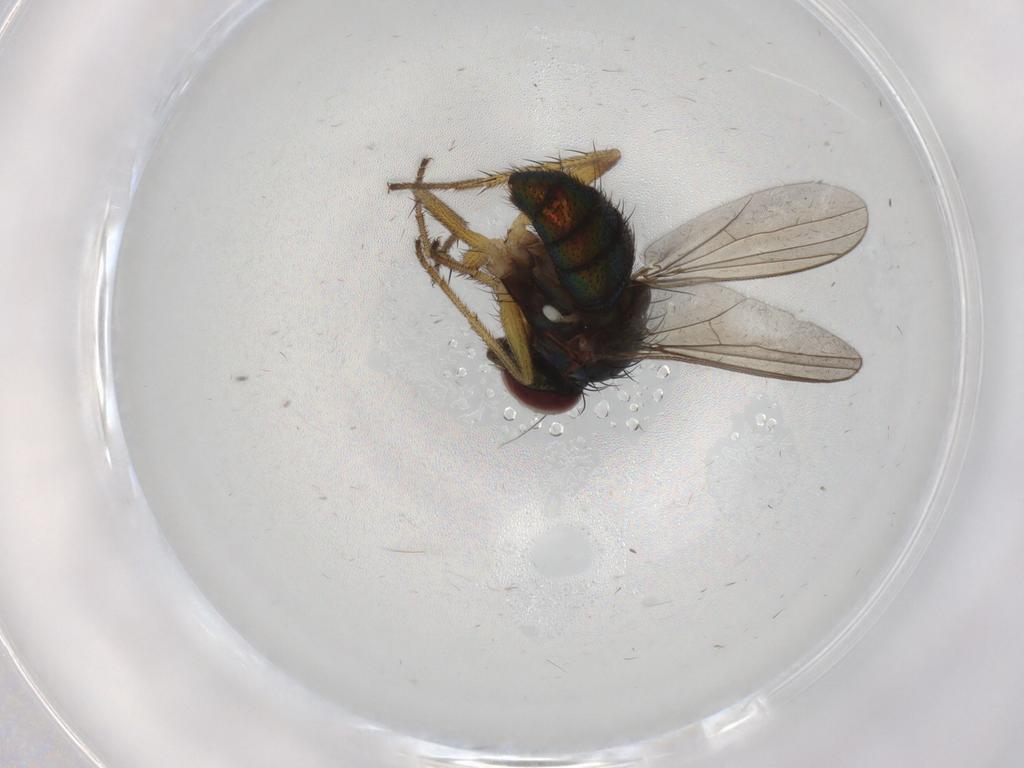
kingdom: Animalia
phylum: Arthropoda
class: Insecta
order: Diptera
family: Dolichopodidae
